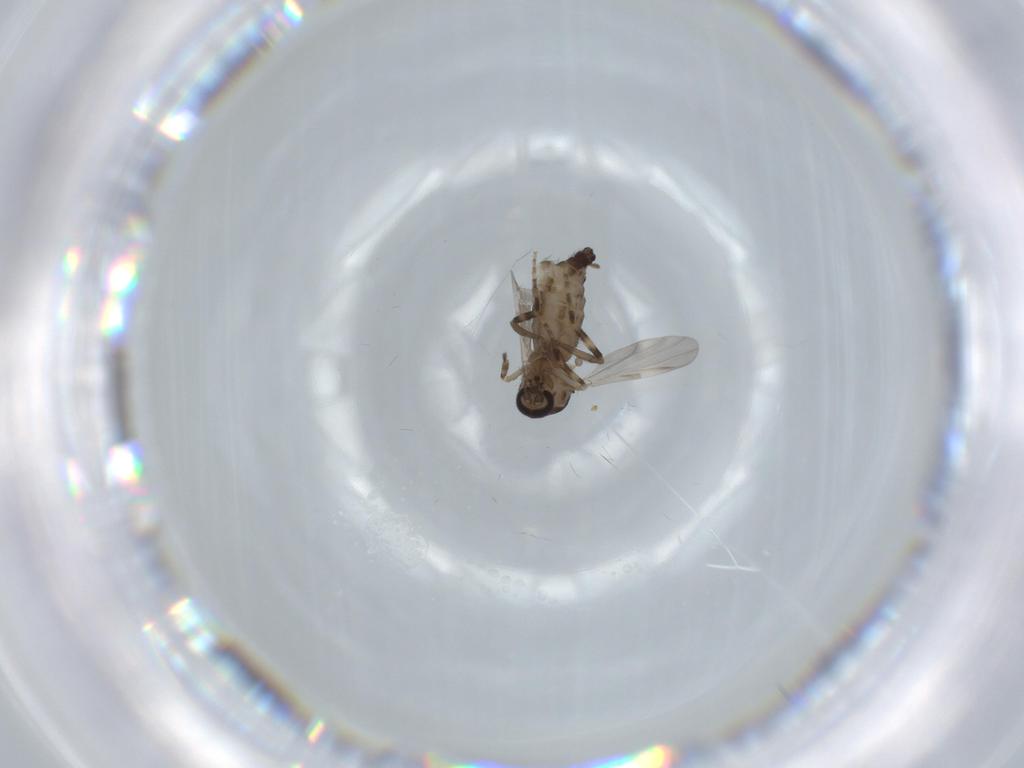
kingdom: Animalia
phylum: Arthropoda
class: Insecta
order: Diptera
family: Ceratopogonidae
